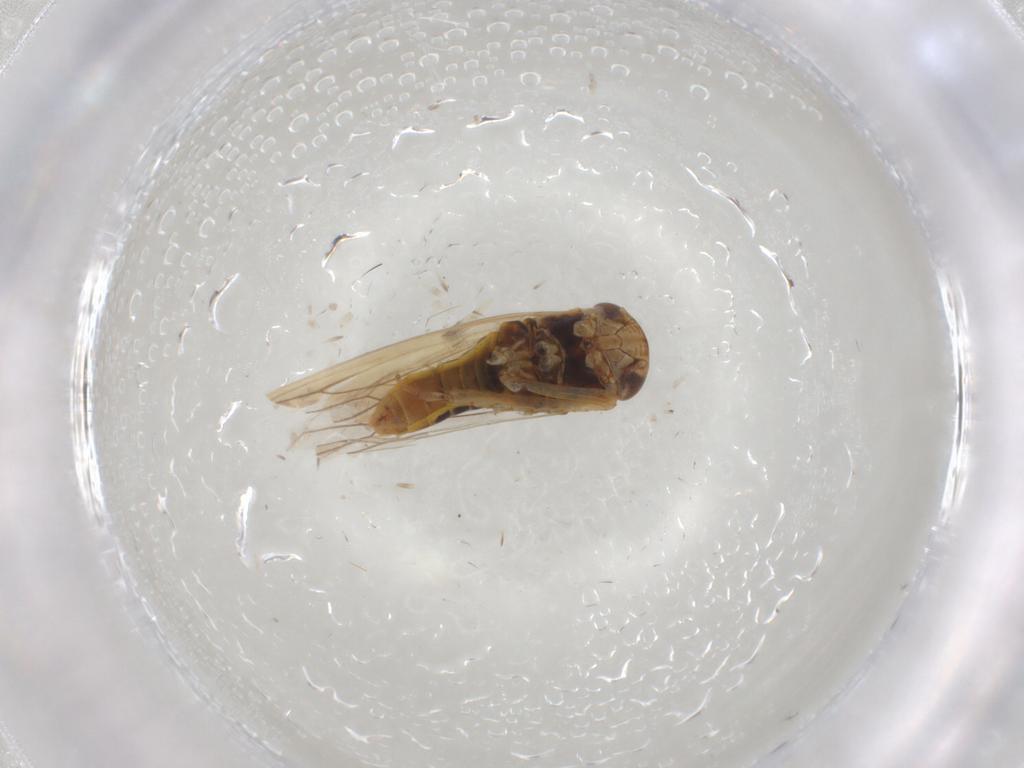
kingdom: Animalia
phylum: Arthropoda
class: Insecta
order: Hemiptera
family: Cicadellidae
